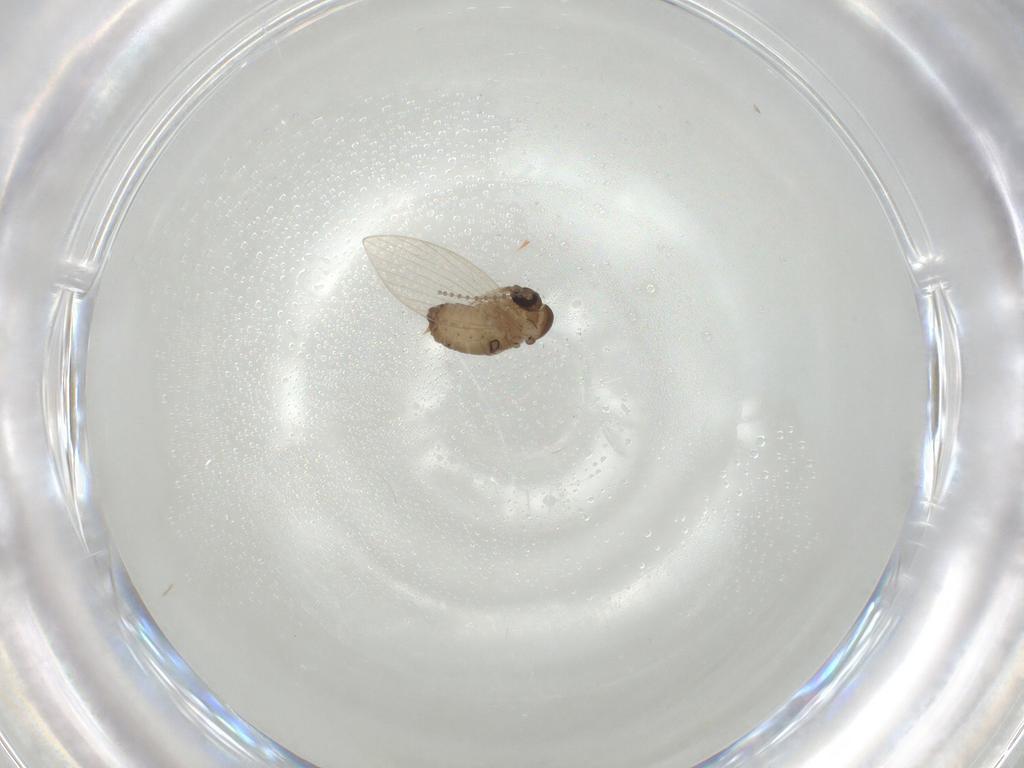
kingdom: Animalia
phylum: Arthropoda
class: Insecta
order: Diptera
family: Psychodidae
